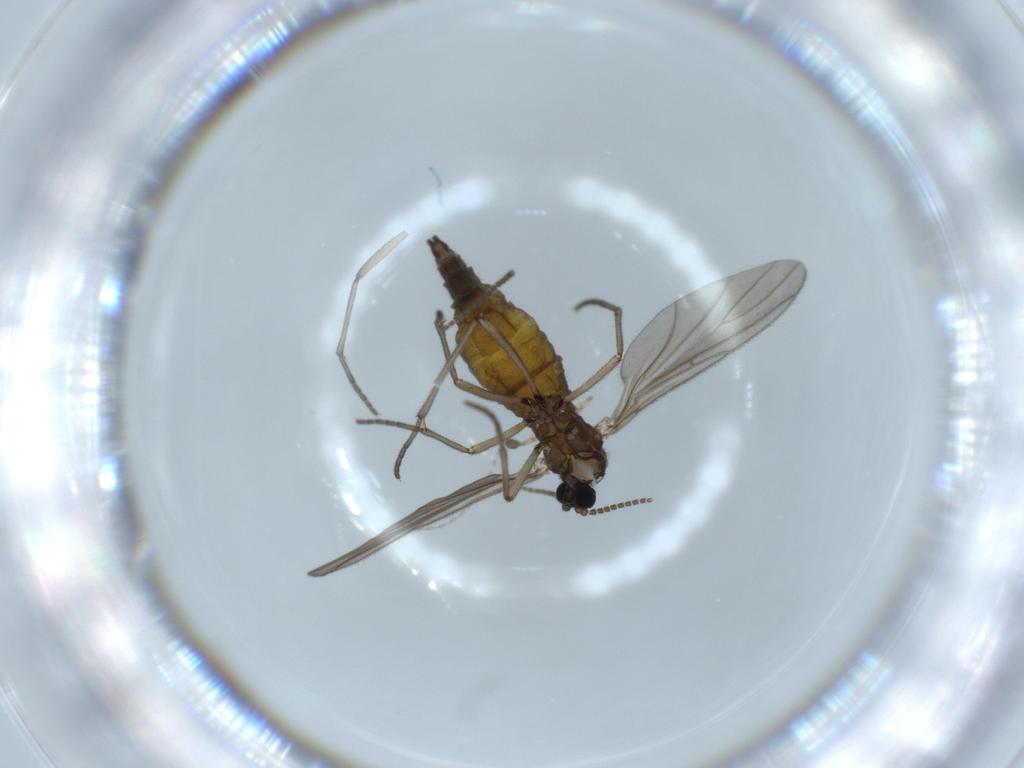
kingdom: Animalia
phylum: Arthropoda
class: Insecta
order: Diptera
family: Sciaridae
